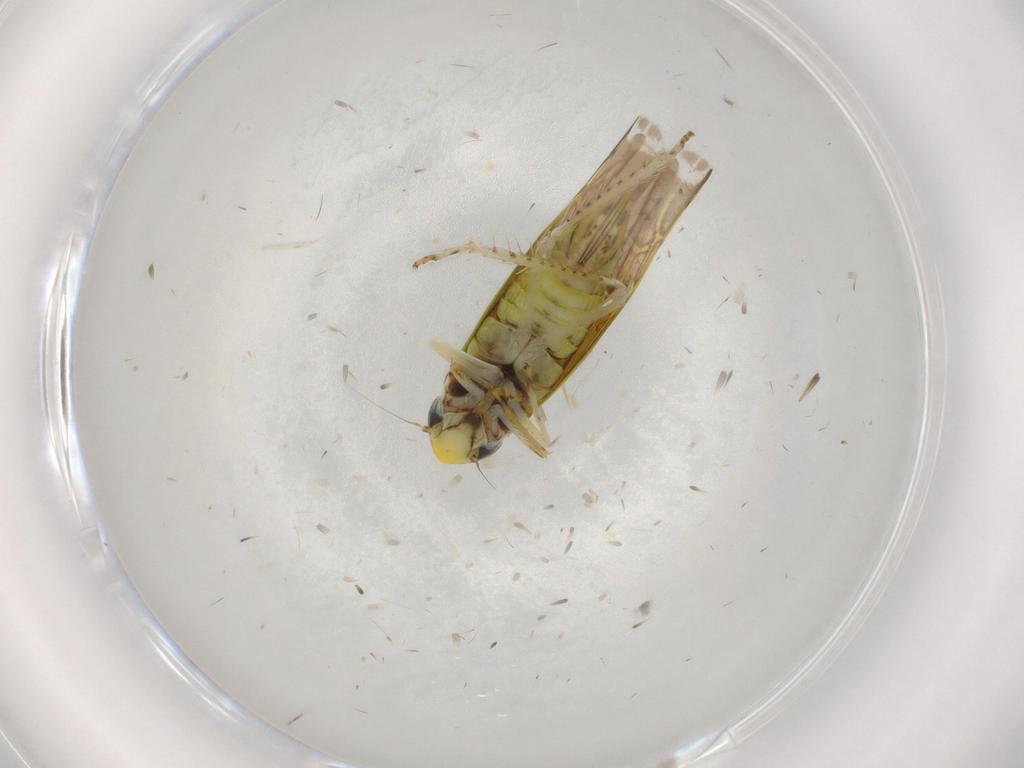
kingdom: Animalia
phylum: Arthropoda
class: Insecta
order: Hemiptera
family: Cicadellidae
